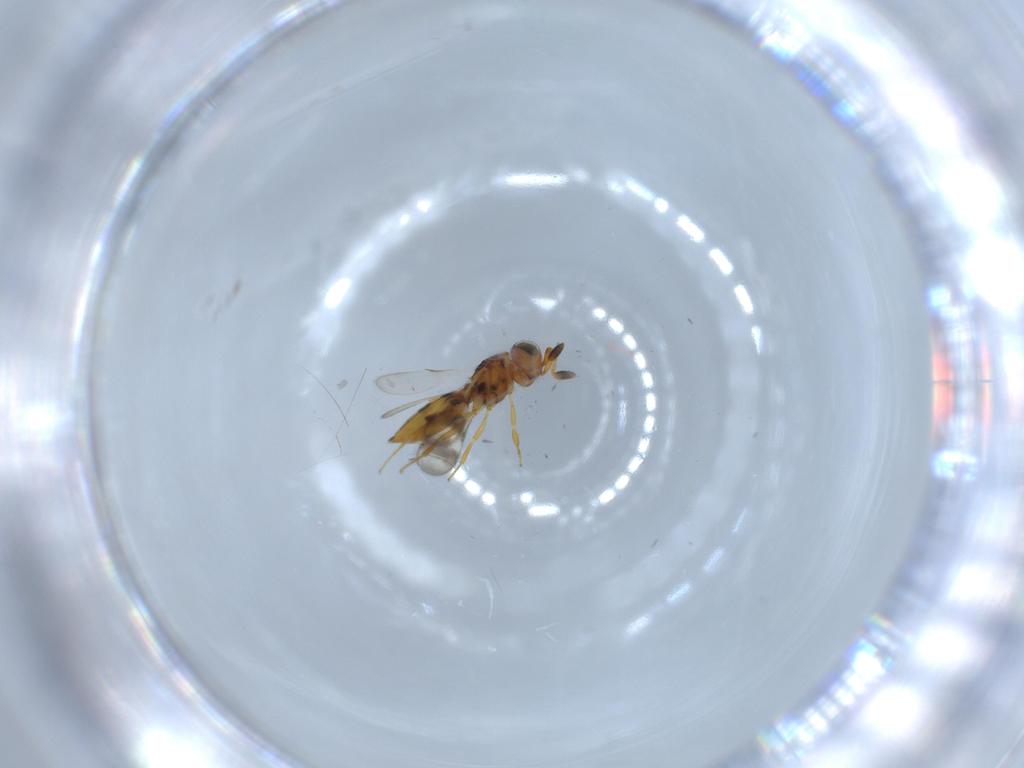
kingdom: Animalia
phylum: Arthropoda
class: Insecta
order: Hymenoptera
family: Scelionidae
